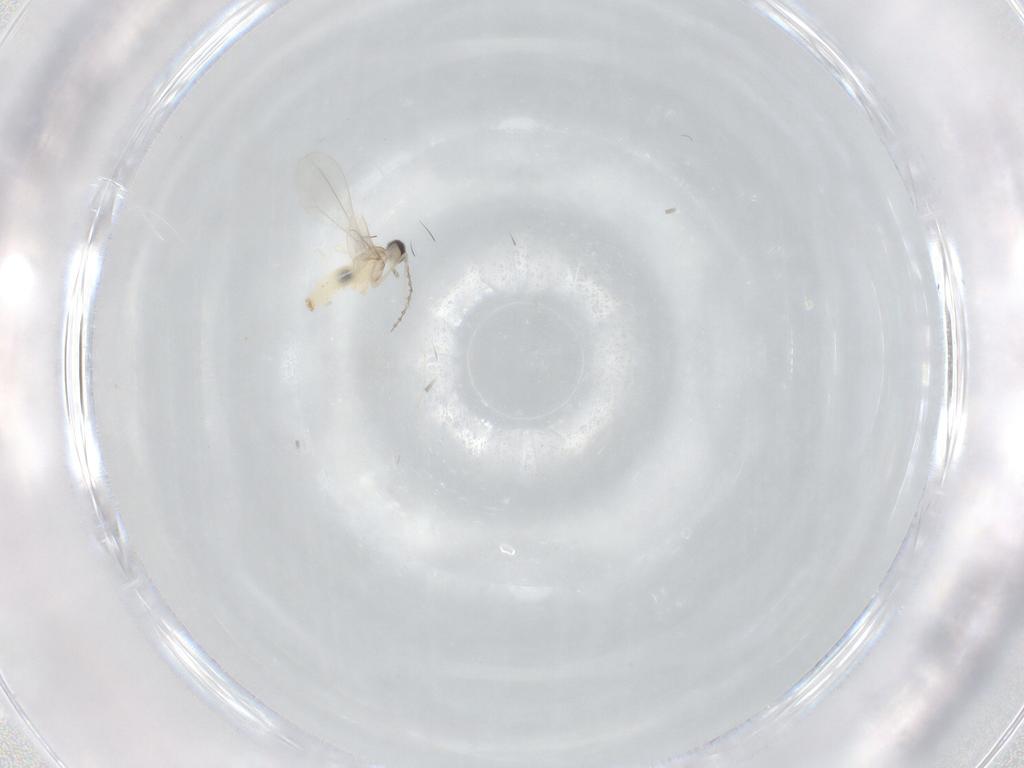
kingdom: Animalia
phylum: Arthropoda
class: Insecta
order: Diptera
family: Cecidomyiidae
